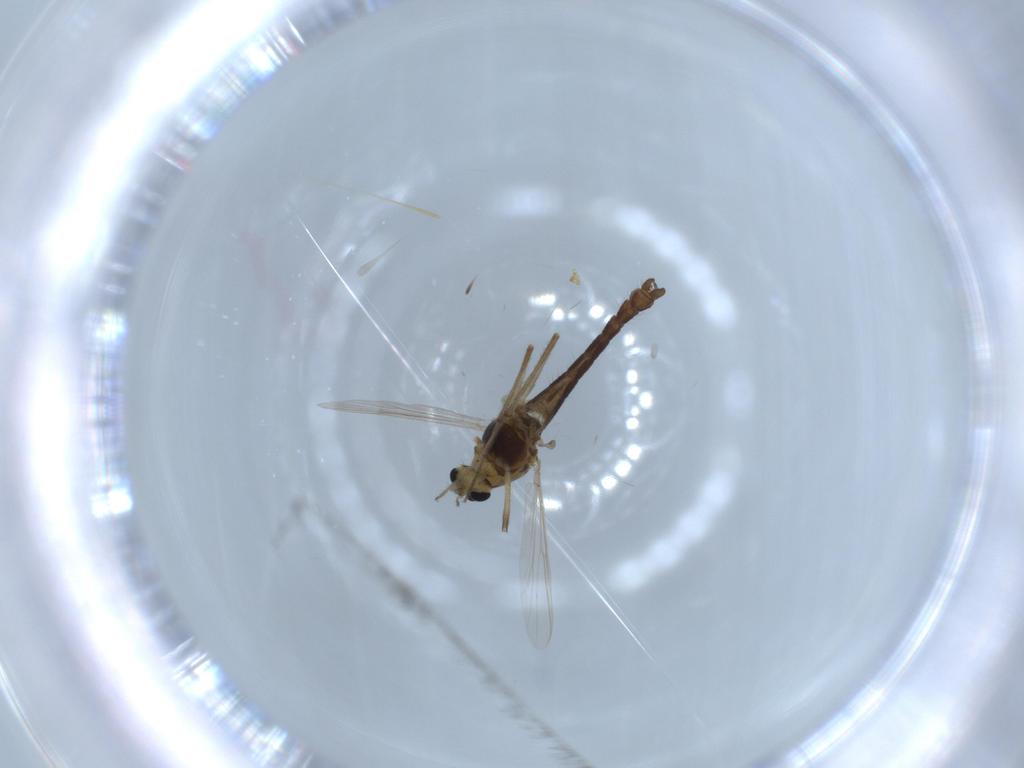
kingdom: Animalia
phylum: Arthropoda
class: Insecta
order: Diptera
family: Chironomidae
